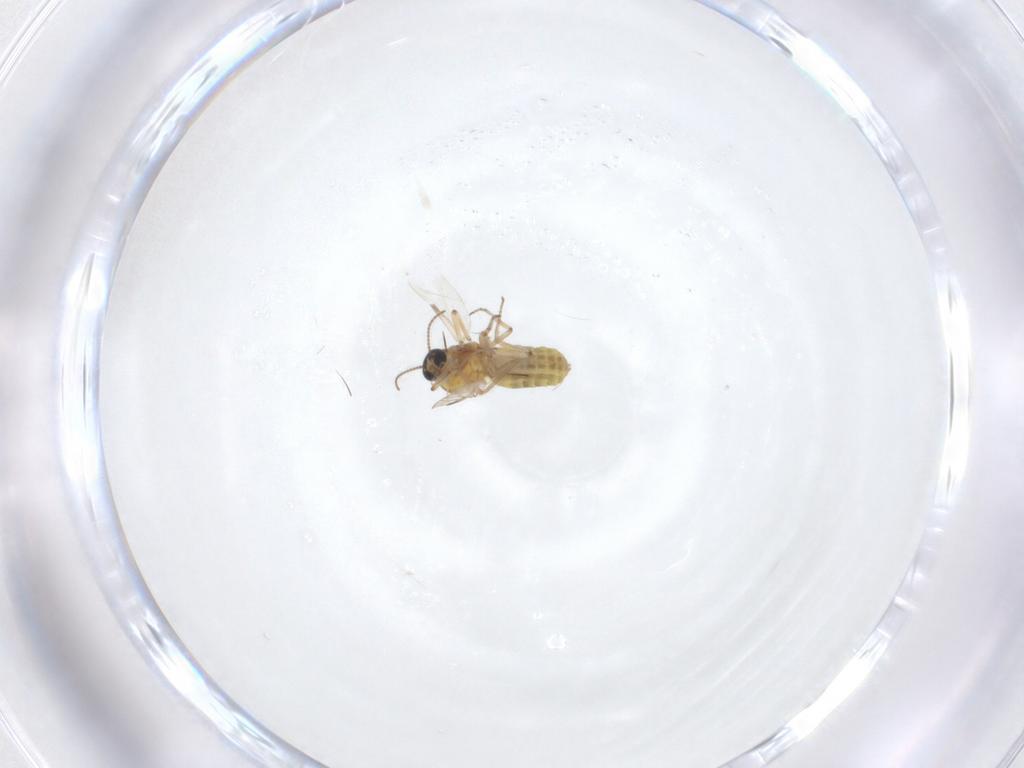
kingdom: Animalia
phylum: Arthropoda
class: Insecta
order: Diptera
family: Chironomidae
